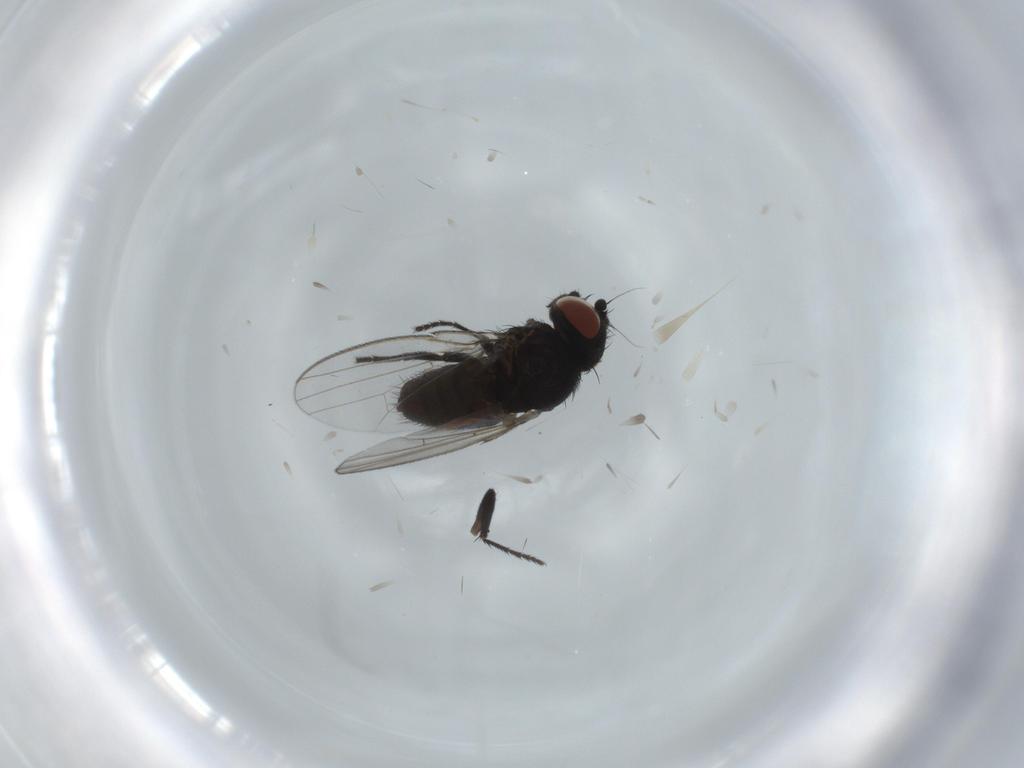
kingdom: Animalia
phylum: Arthropoda
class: Insecta
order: Diptera
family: Milichiidae
